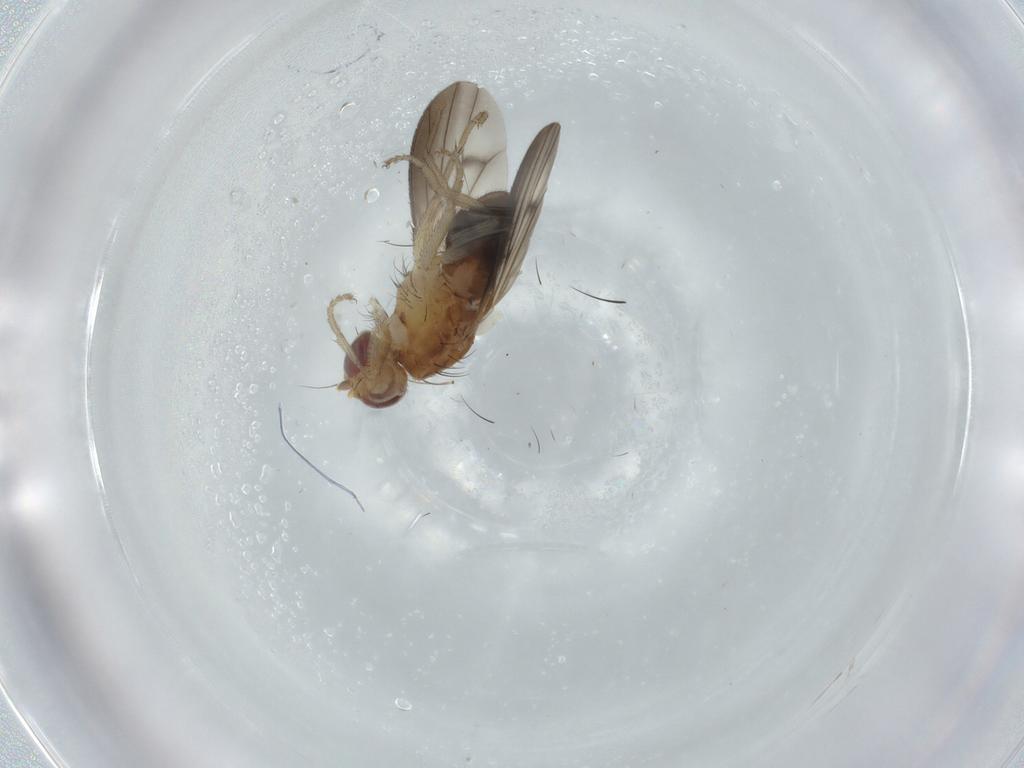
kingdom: Animalia
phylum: Arthropoda
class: Insecta
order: Diptera
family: Heleomyzidae
